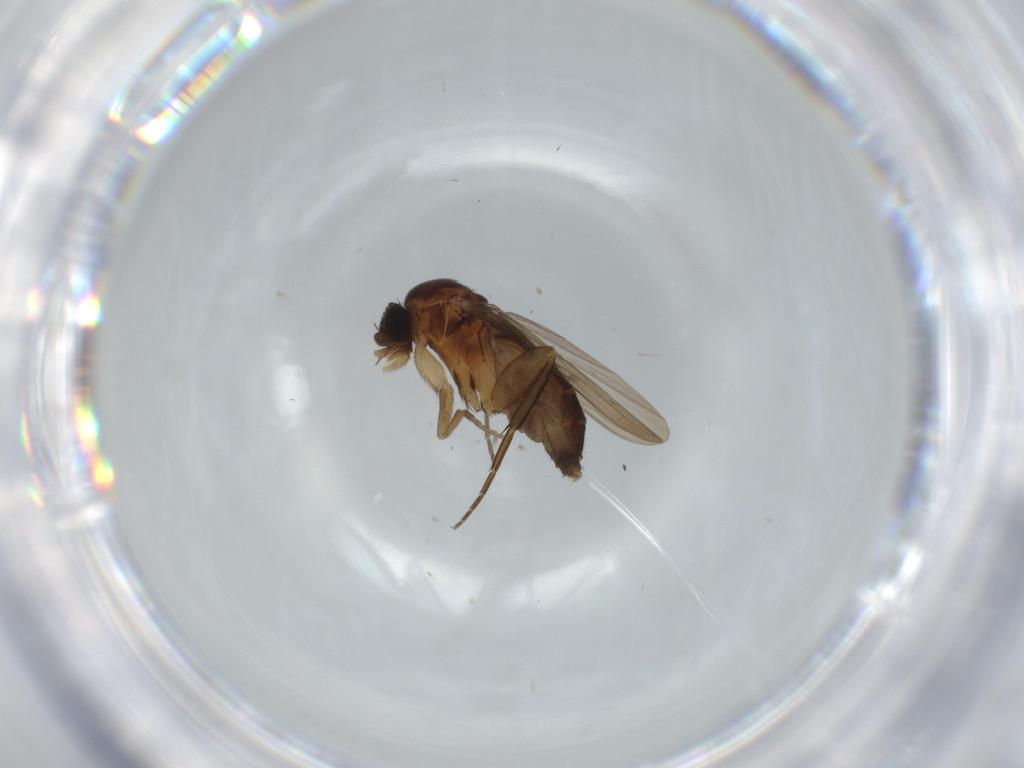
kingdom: Animalia
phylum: Arthropoda
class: Insecta
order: Diptera
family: Phoridae
